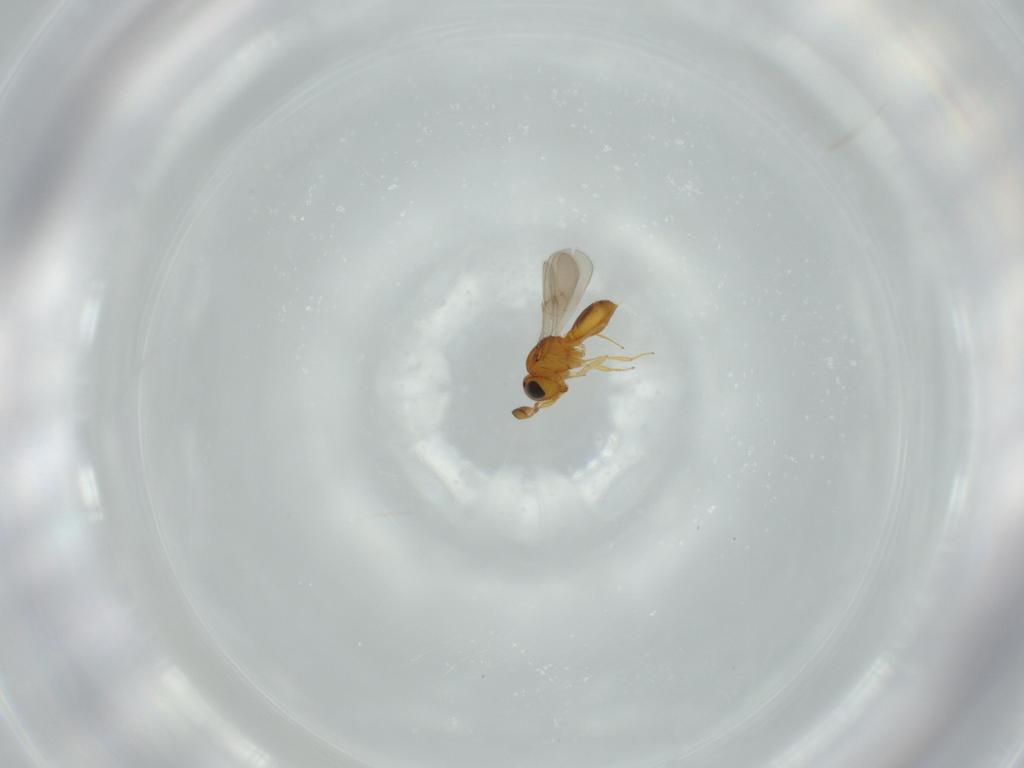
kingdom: Animalia
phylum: Arthropoda
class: Insecta
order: Hymenoptera
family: Scelionidae
